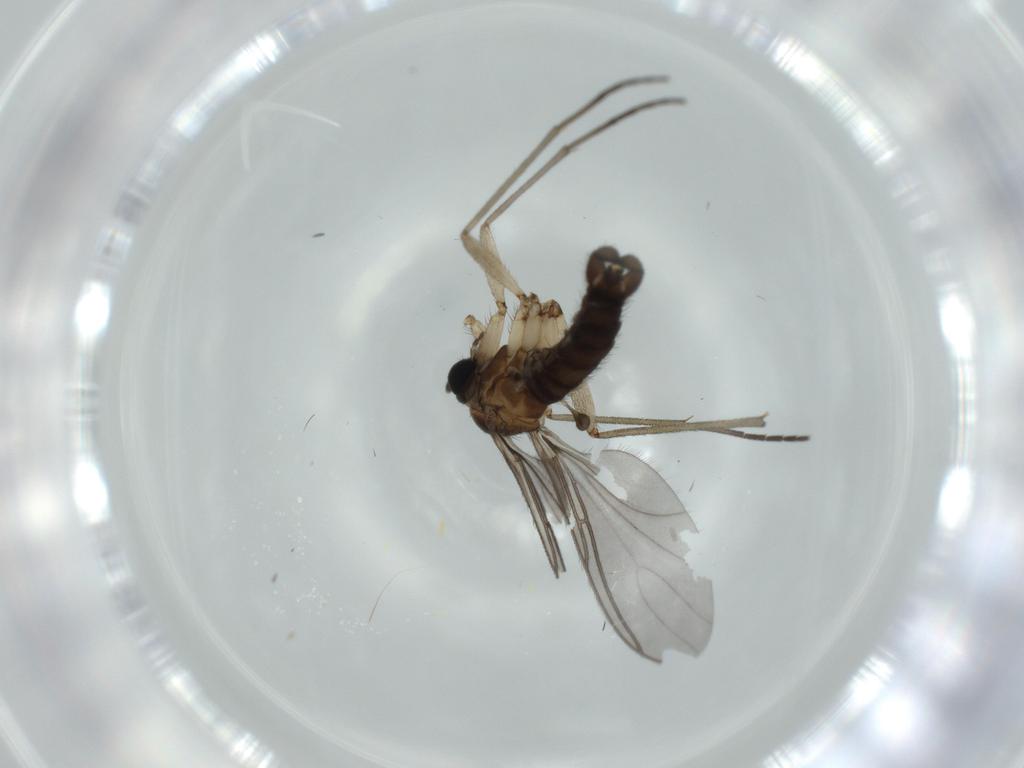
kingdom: Animalia
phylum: Arthropoda
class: Insecta
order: Diptera
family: Sciaridae
